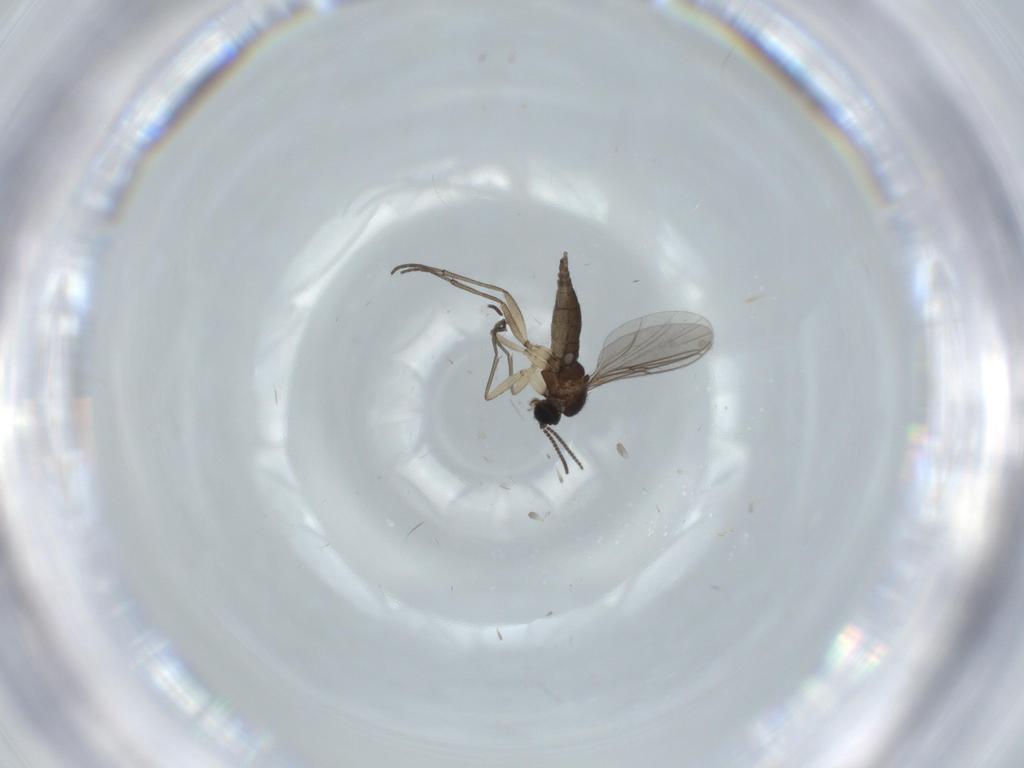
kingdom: Animalia
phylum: Arthropoda
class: Insecta
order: Diptera
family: Sciaridae
